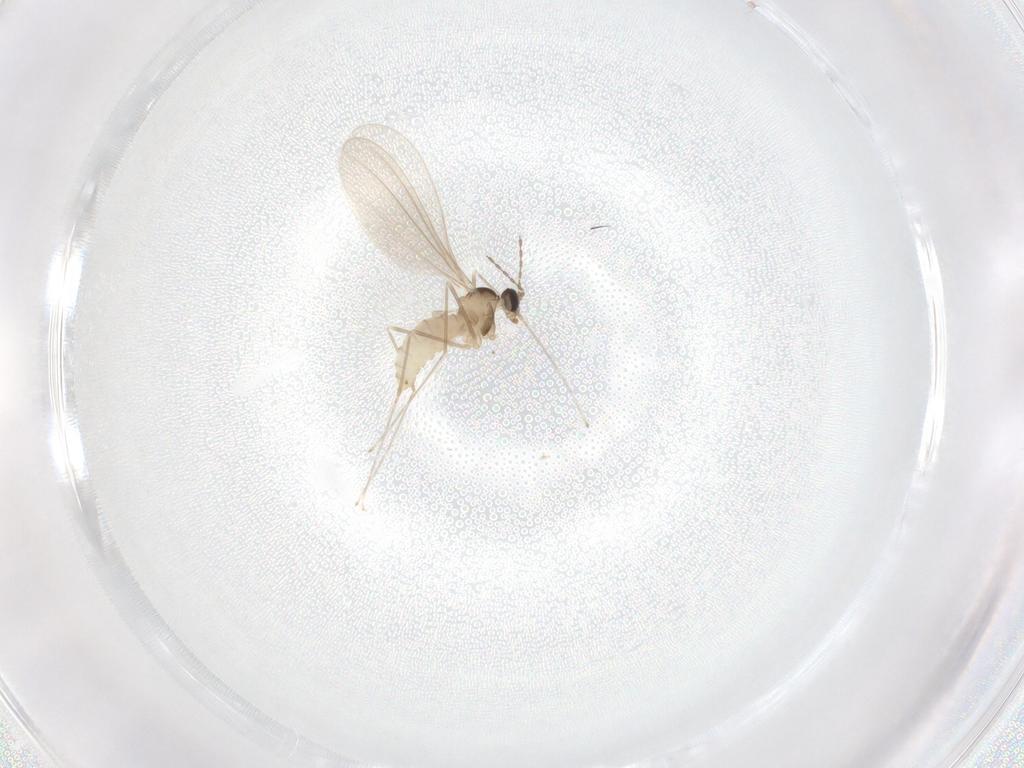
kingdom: Animalia
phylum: Arthropoda
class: Insecta
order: Diptera
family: Cecidomyiidae
